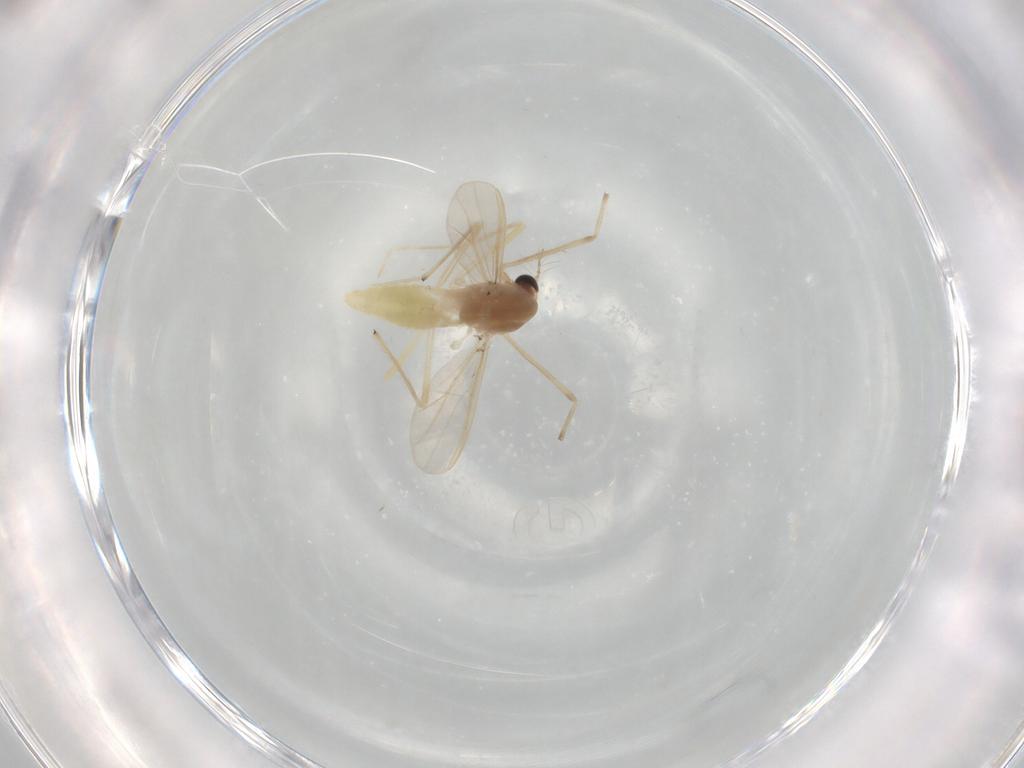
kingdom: Animalia
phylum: Arthropoda
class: Insecta
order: Diptera
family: Chironomidae
